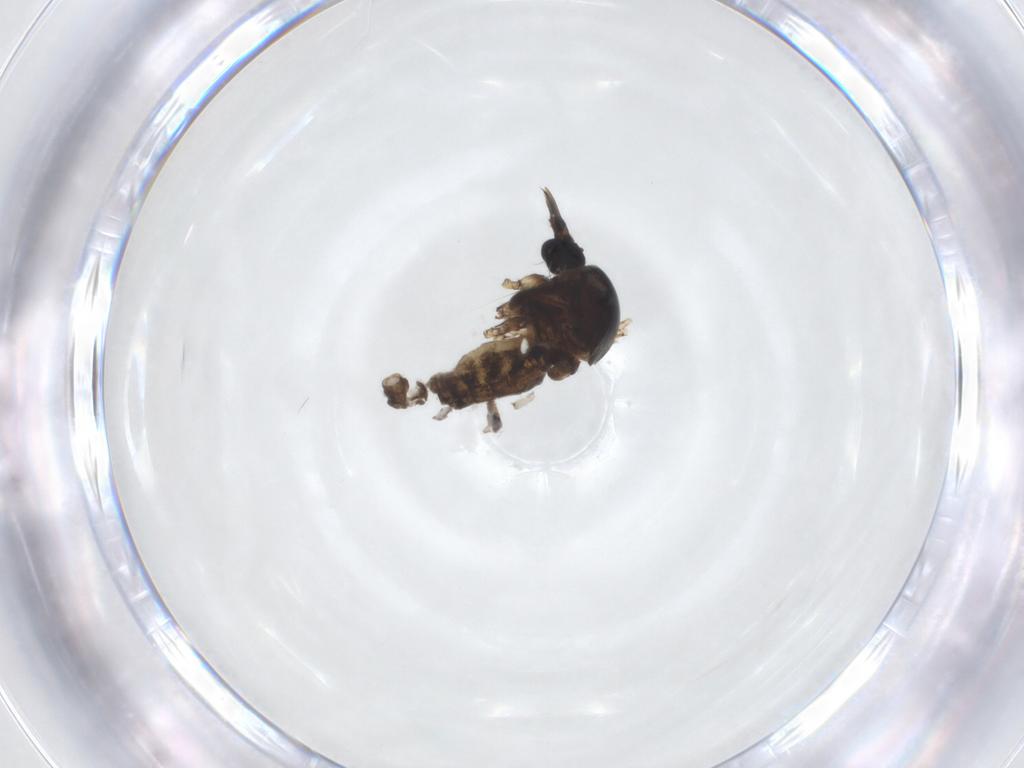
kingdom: Animalia
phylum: Arthropoda
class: Insecta
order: Diptera
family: Ceratopogonidae
